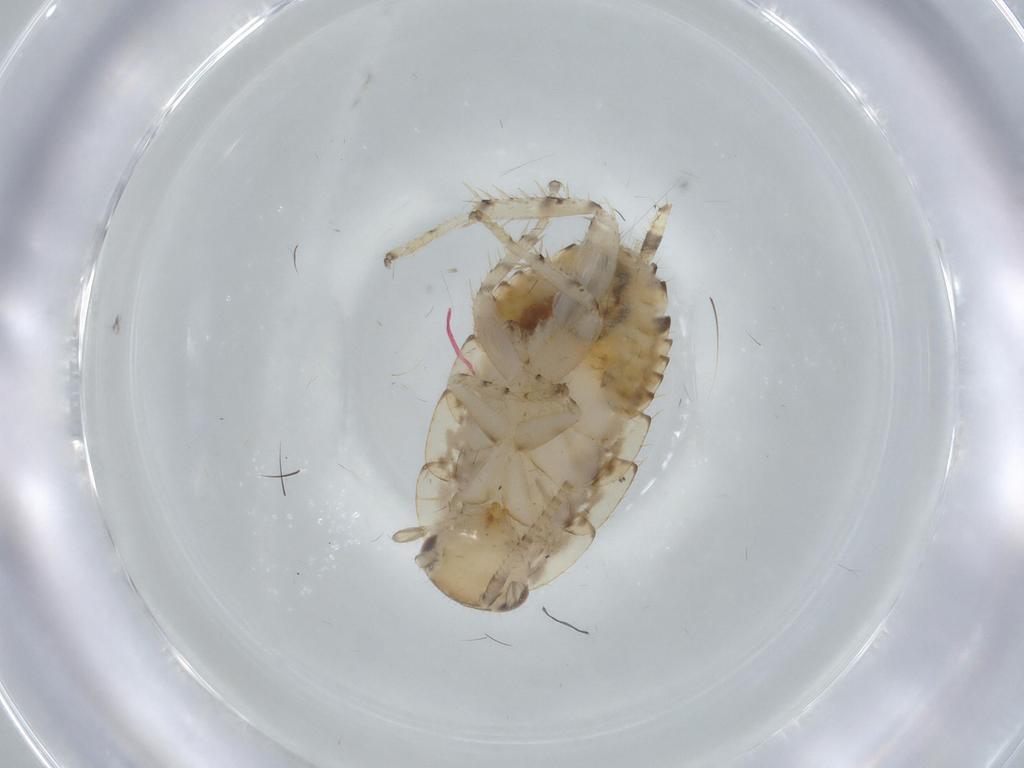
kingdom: Animalia
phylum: Arthropoda
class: Insecta
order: Blattodea
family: Ectobiidae
